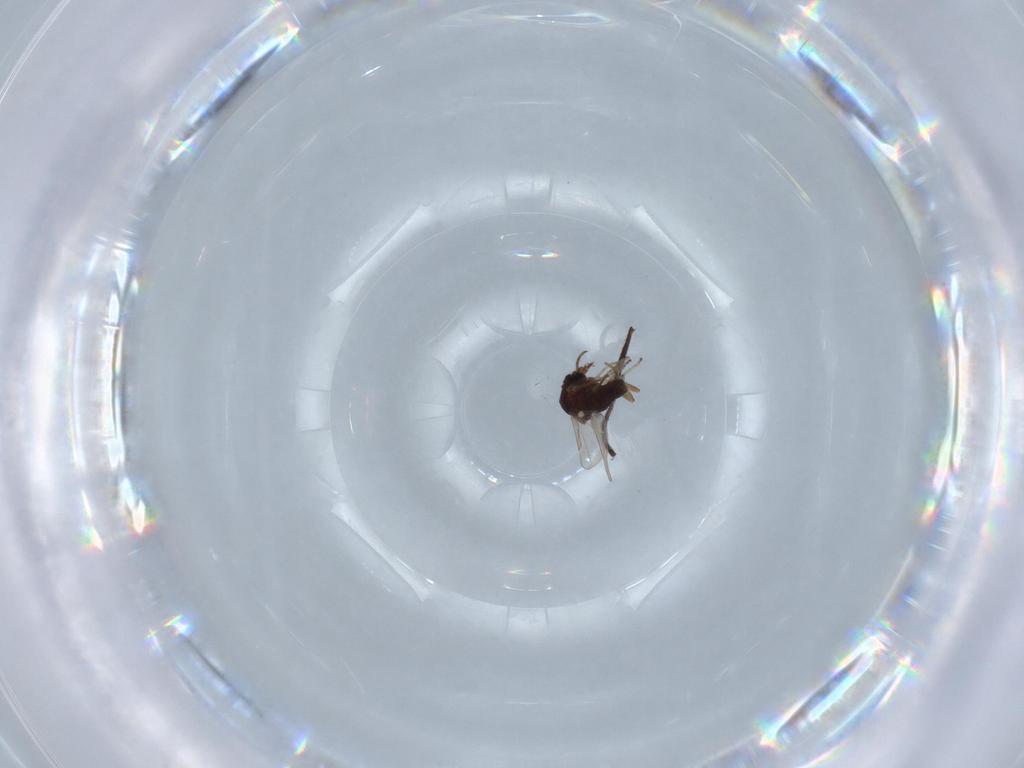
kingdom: Animalia
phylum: Arthropoda
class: Insecta
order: Diptera
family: Ephydridae
